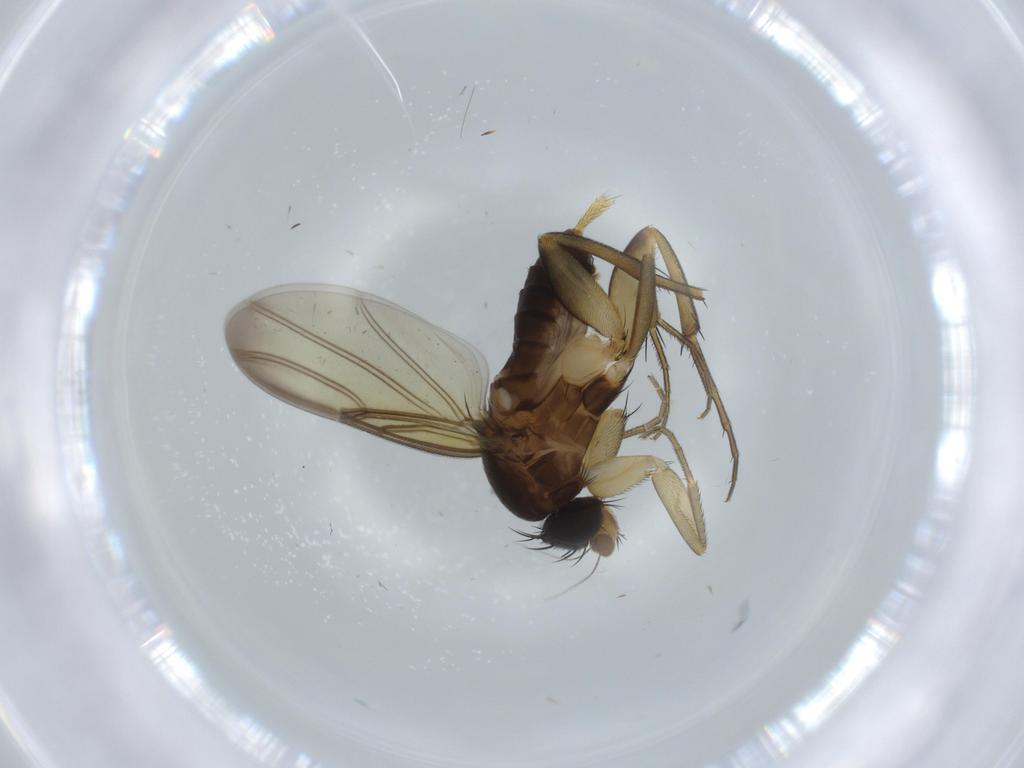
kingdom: Animalia
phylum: Arthropoda
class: Insecta
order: Diptera
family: Phoridae
